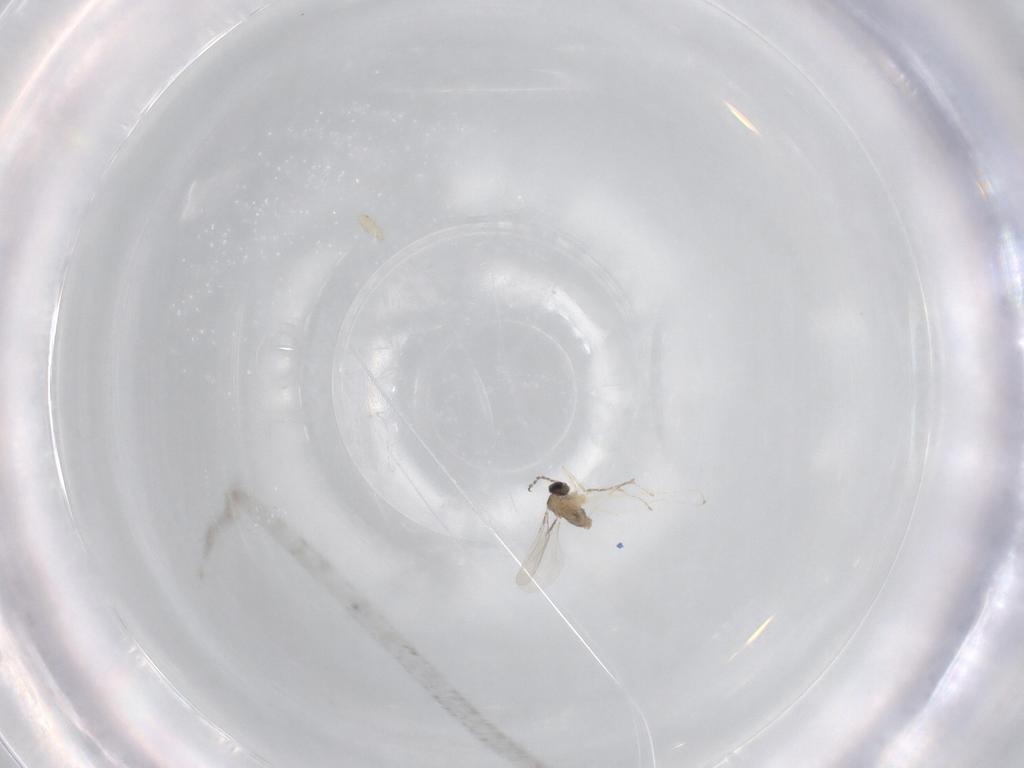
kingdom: Animalia
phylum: Arthropoda
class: Insecta
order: Diptera
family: Cecidomyiidae
